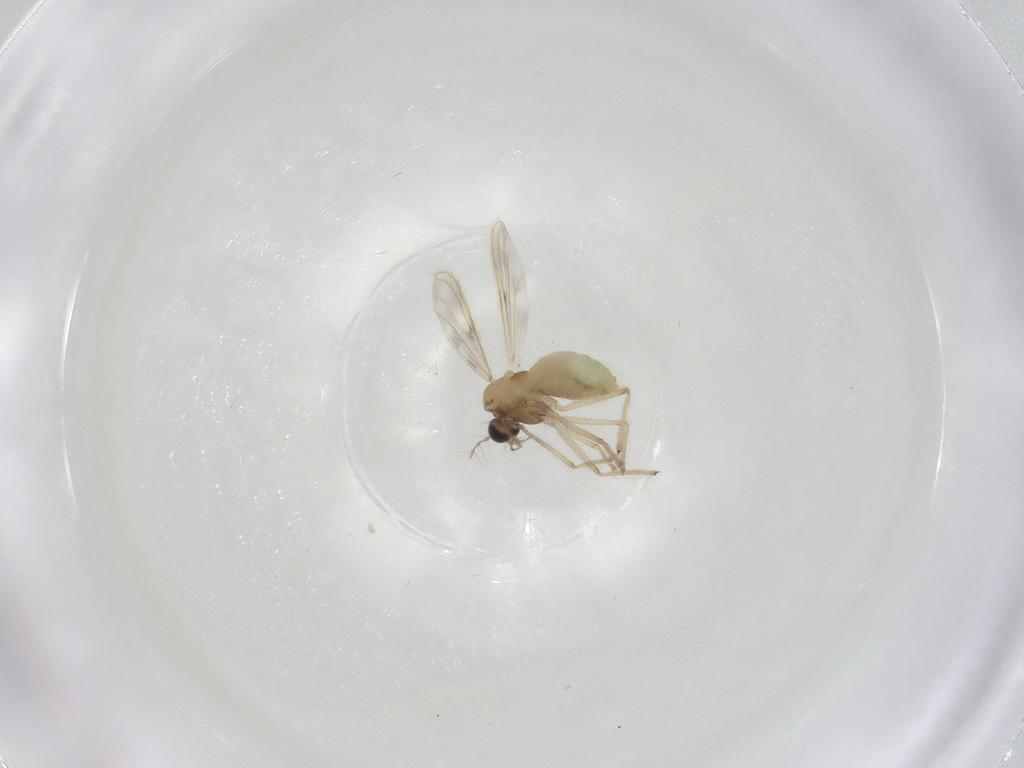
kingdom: Animalia
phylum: Arthropoda
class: Insecta
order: Diptera
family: Chironomidae
